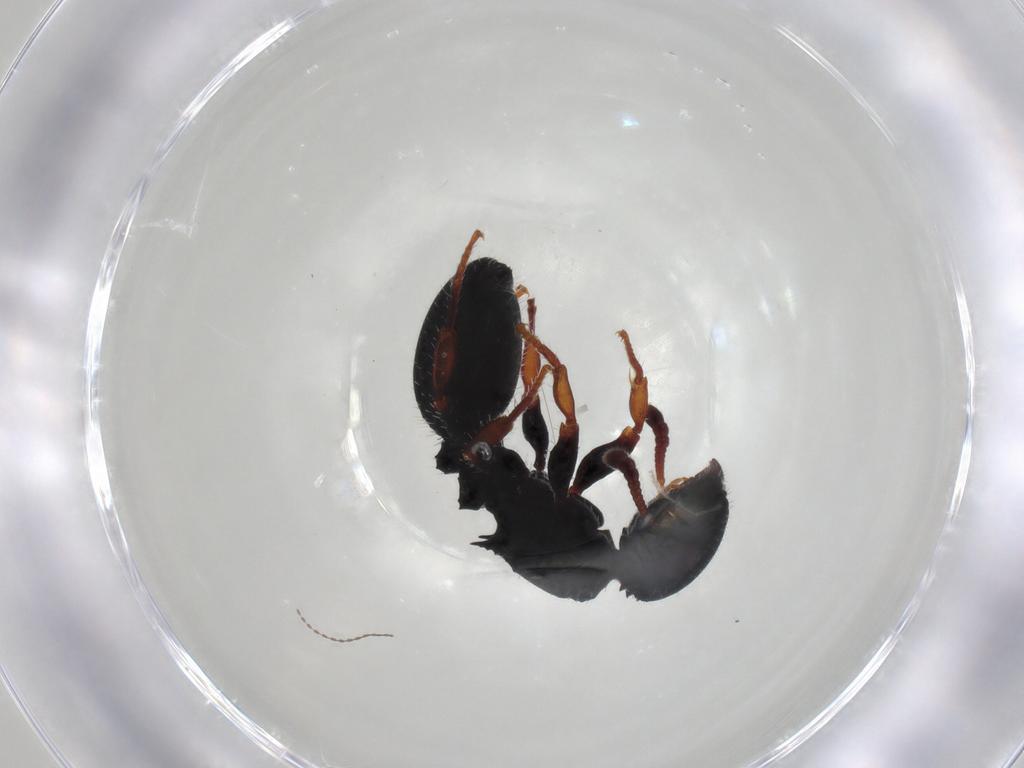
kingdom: Animalia
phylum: Arthropoda
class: Insecta
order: Hymenoptera
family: Formicidae
